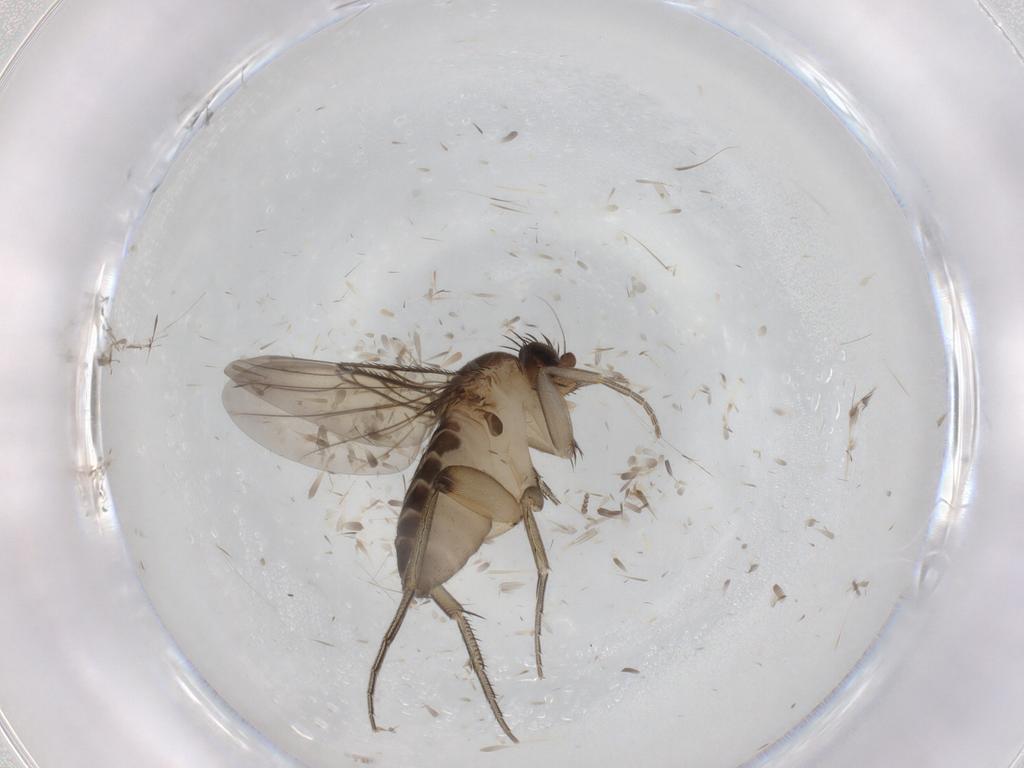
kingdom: Animalia
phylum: Arthropoda
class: Insecta
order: Diptera
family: Phoridae
